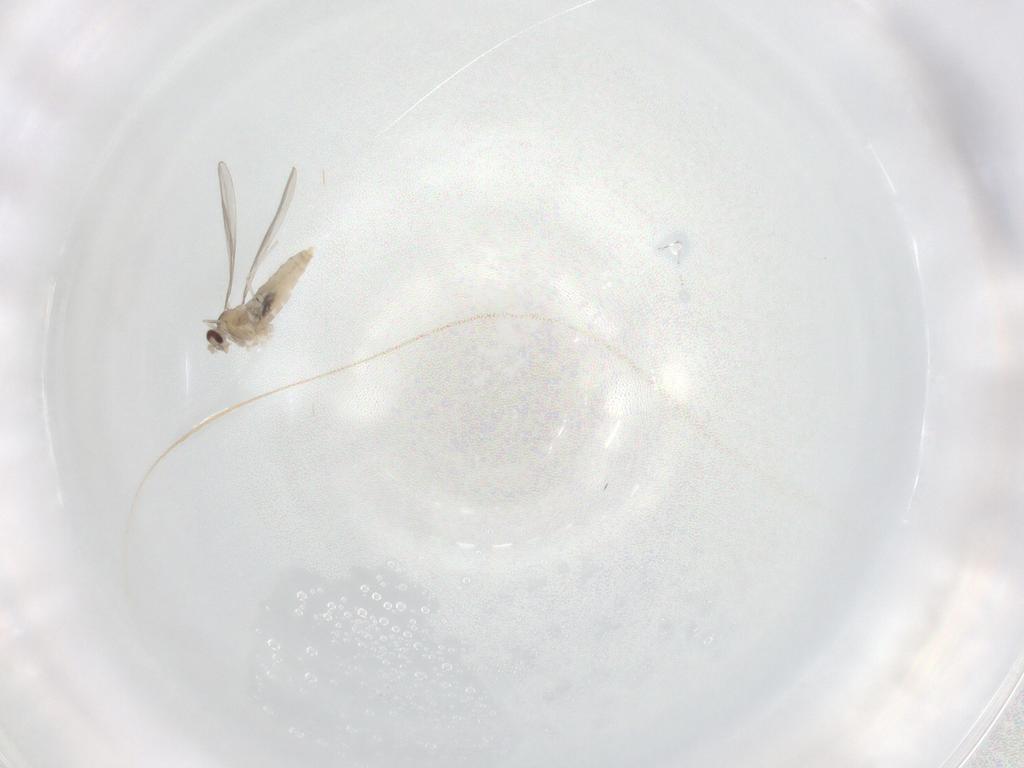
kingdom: Animalia
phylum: Arthropoda
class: Insecta
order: Diptera
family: Cecidomyiidae
